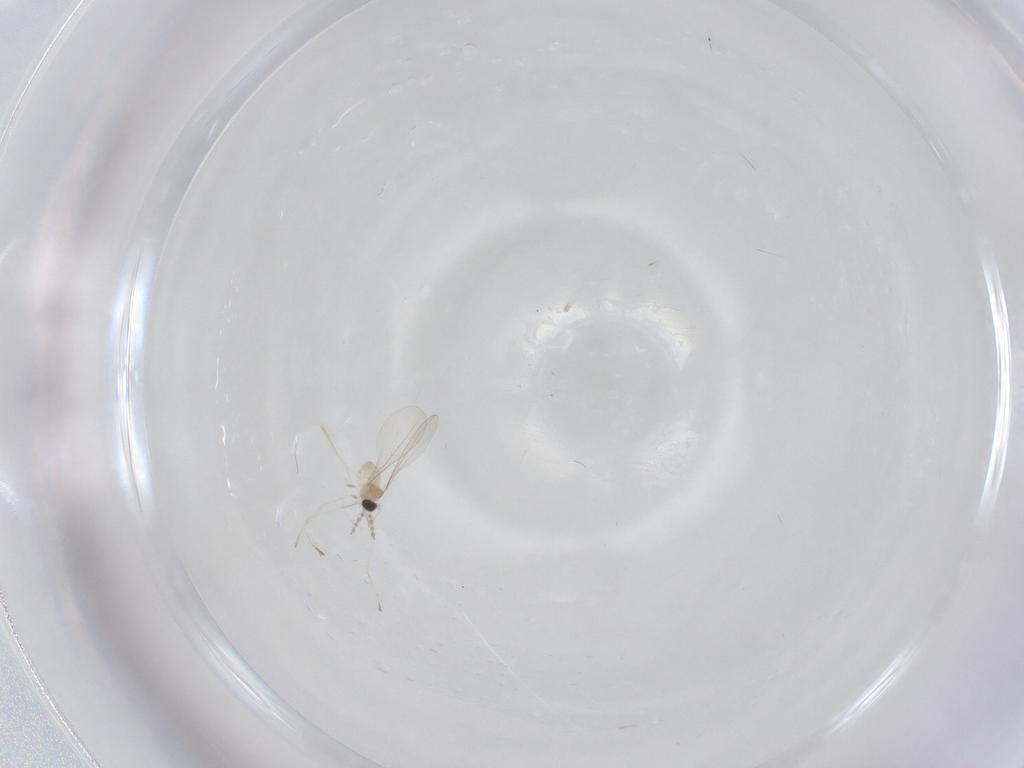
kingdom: Animalia
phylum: Arthropoda
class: Insecta
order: Diptera
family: Cecidomyiidae
